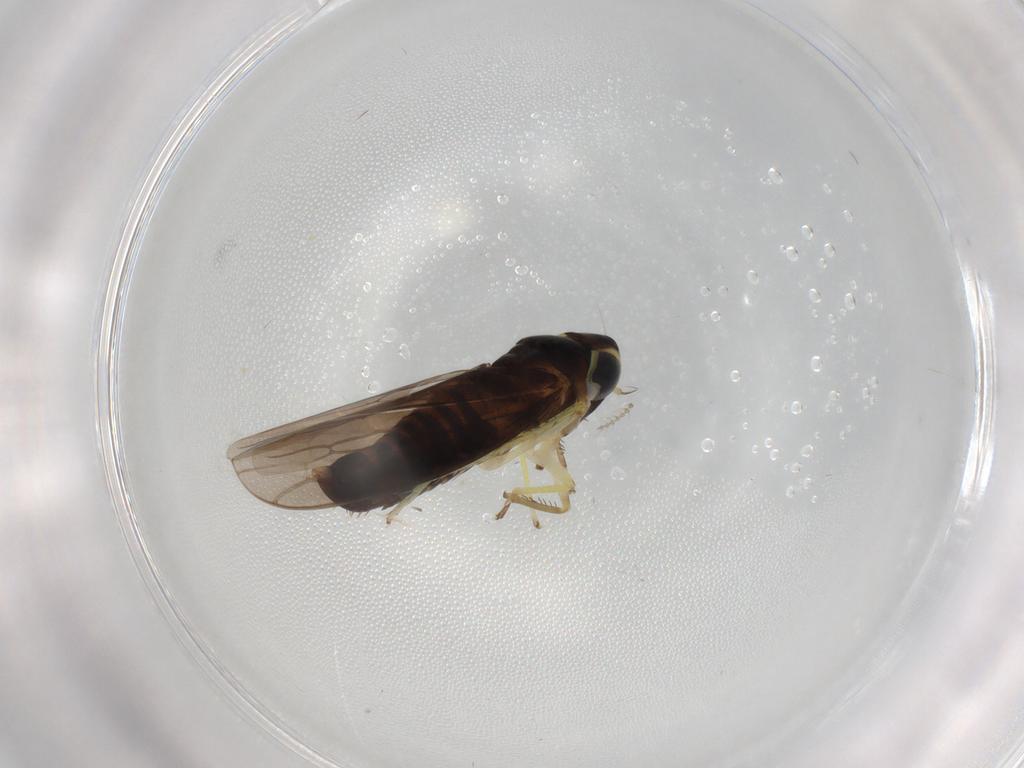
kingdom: Animalia
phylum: Arthropoda
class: Insecta
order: Hemiptera
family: Cicadellidae
